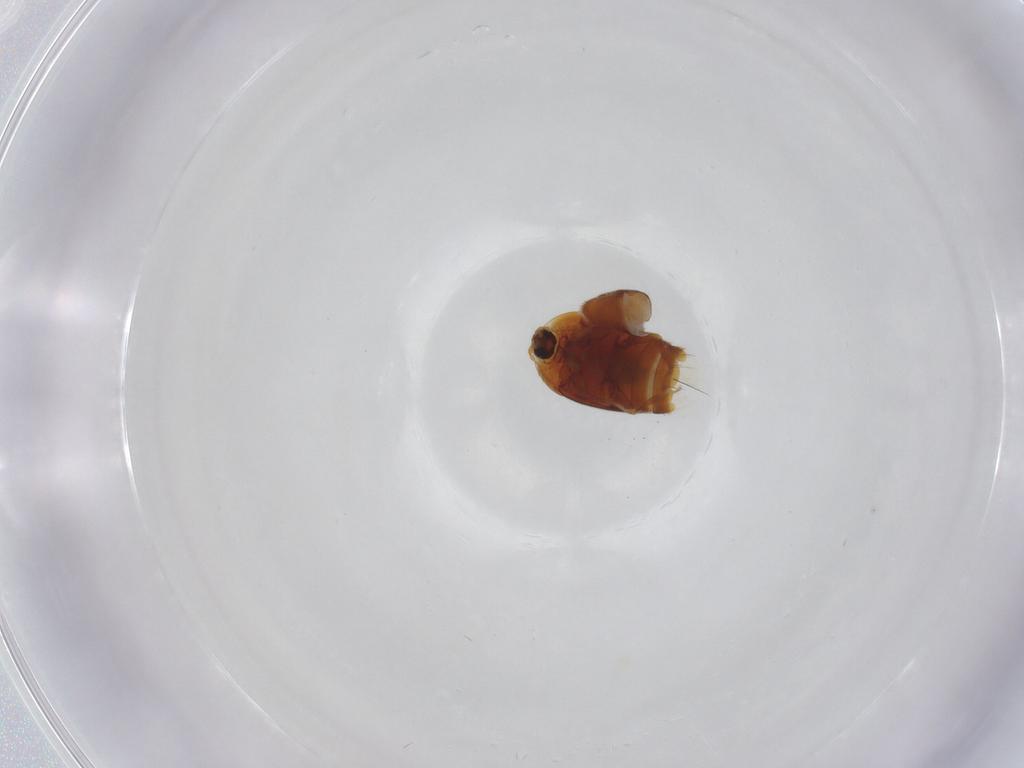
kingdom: Animalia
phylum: Arthropoda
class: Insecta
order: Coleoptera
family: Corylophidae
